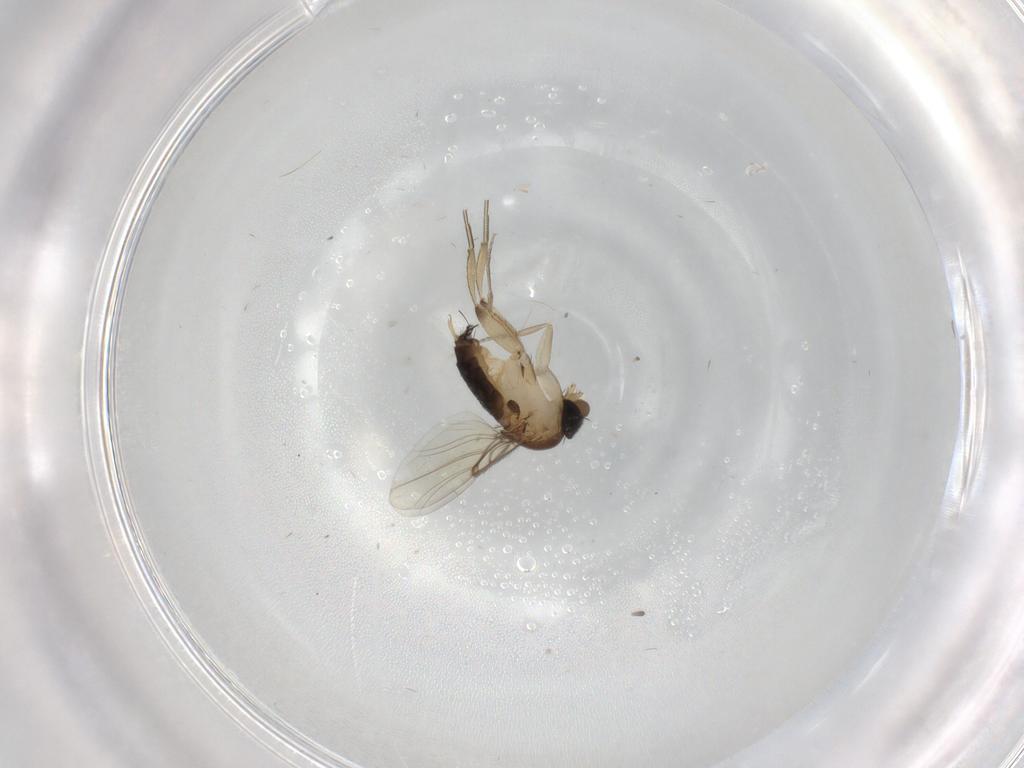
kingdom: Animalia
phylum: Arthropoda
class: Insecta
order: Diptera
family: Phoridae
